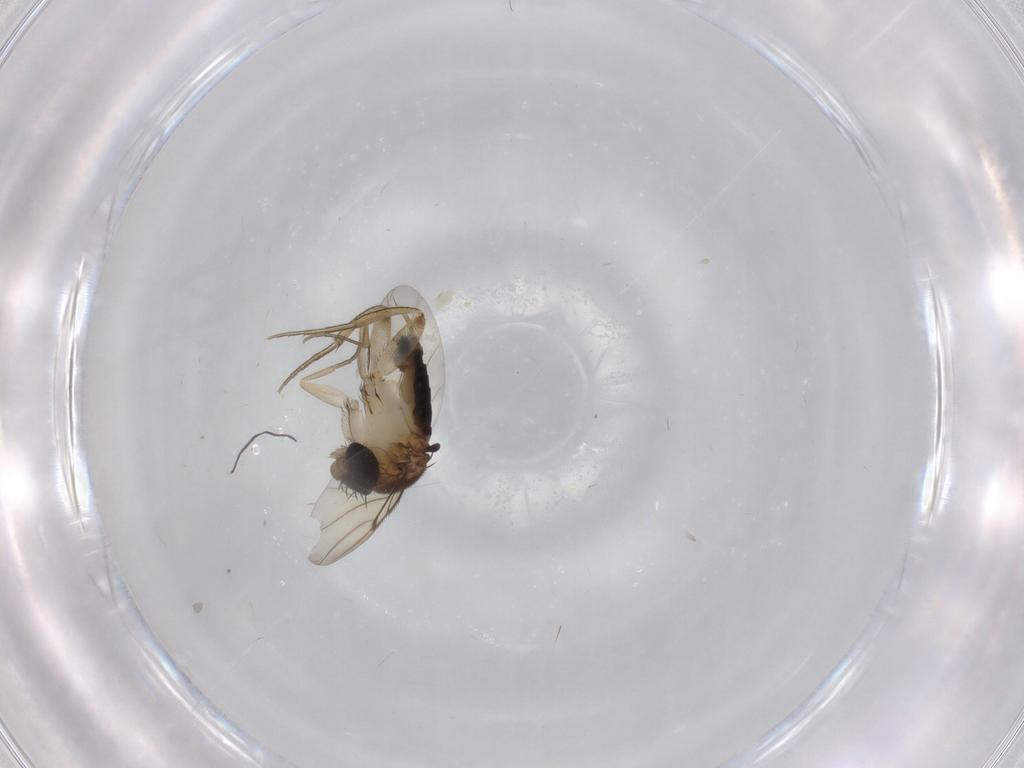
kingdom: Animalia
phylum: Arthropoda
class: Insecta
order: Diptera
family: Phoridae
